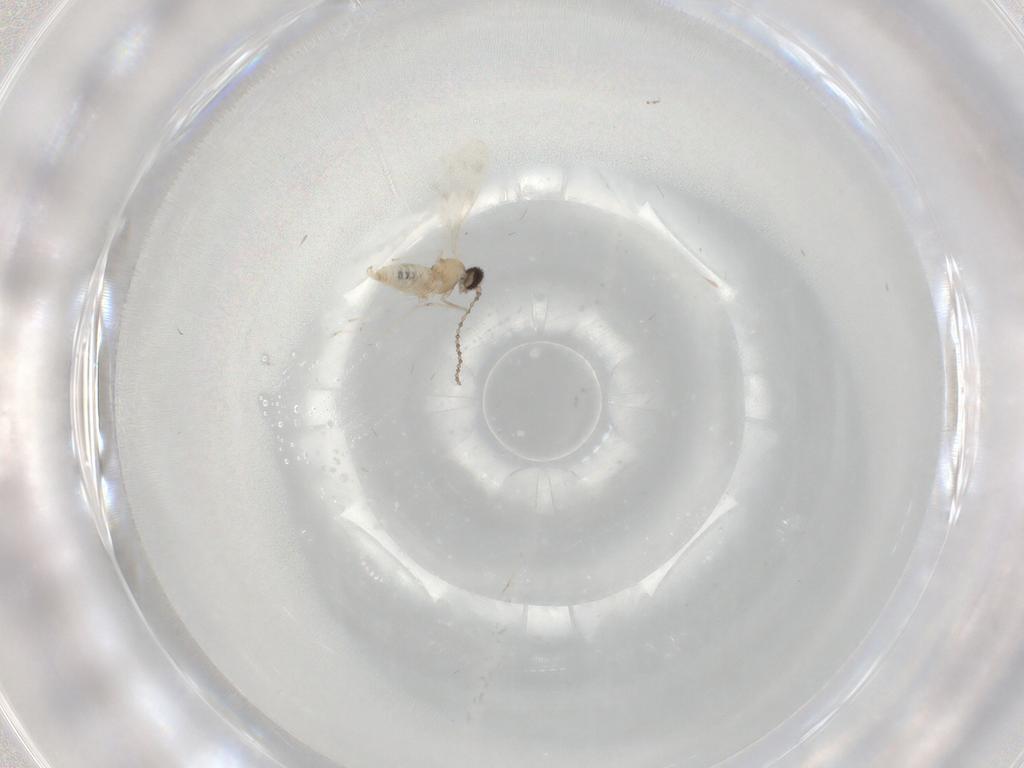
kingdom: Animalia
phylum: Arthropoda
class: Insecta
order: Diptera
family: Cecidomyiidae
